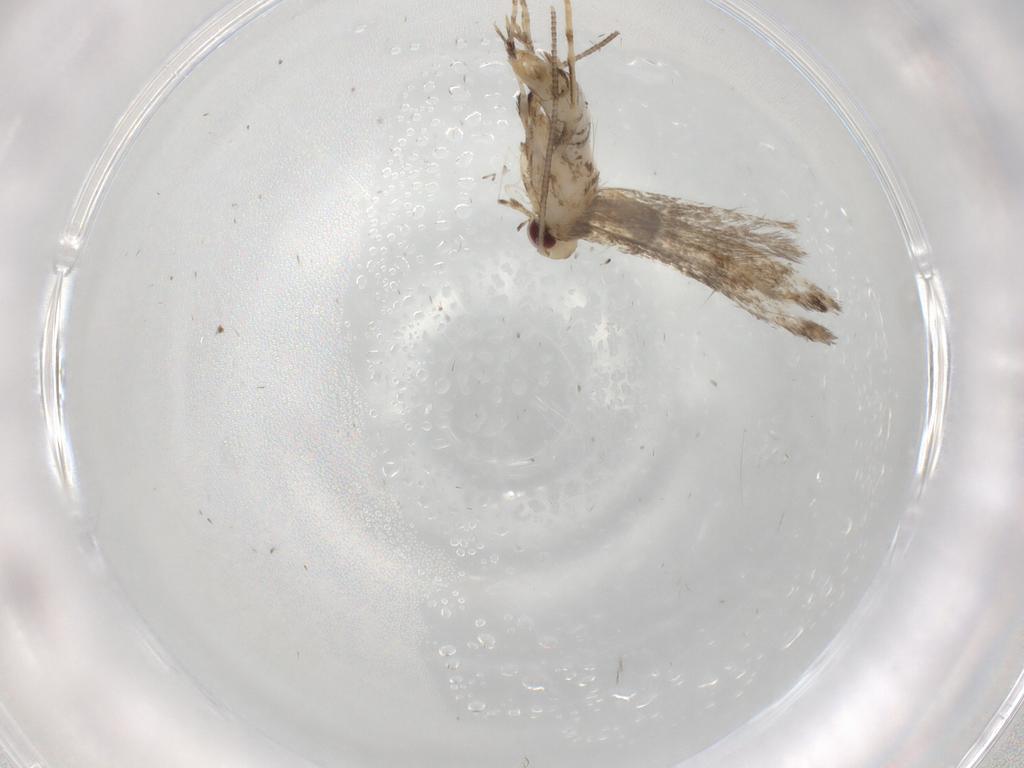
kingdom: Animalia
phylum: Arthropoda
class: Insecta
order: Lepidoptera
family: Gracillariidae
